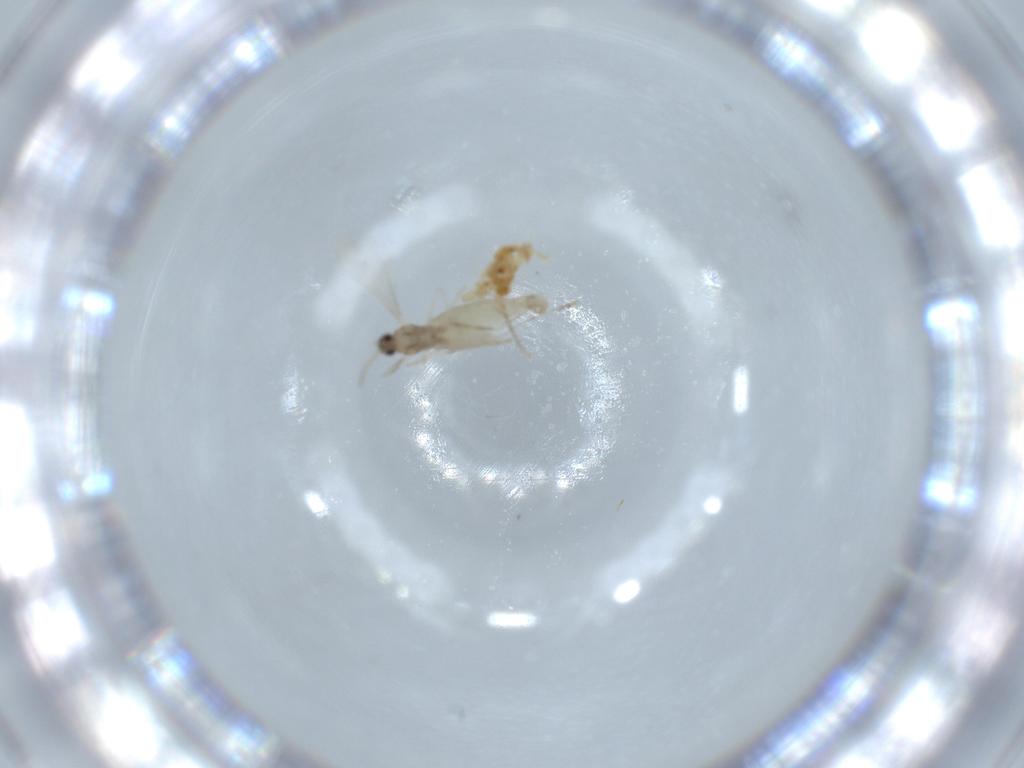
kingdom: Animalia
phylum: Arthropoda
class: Insecta
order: Diptera
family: Cecidomyiidae
